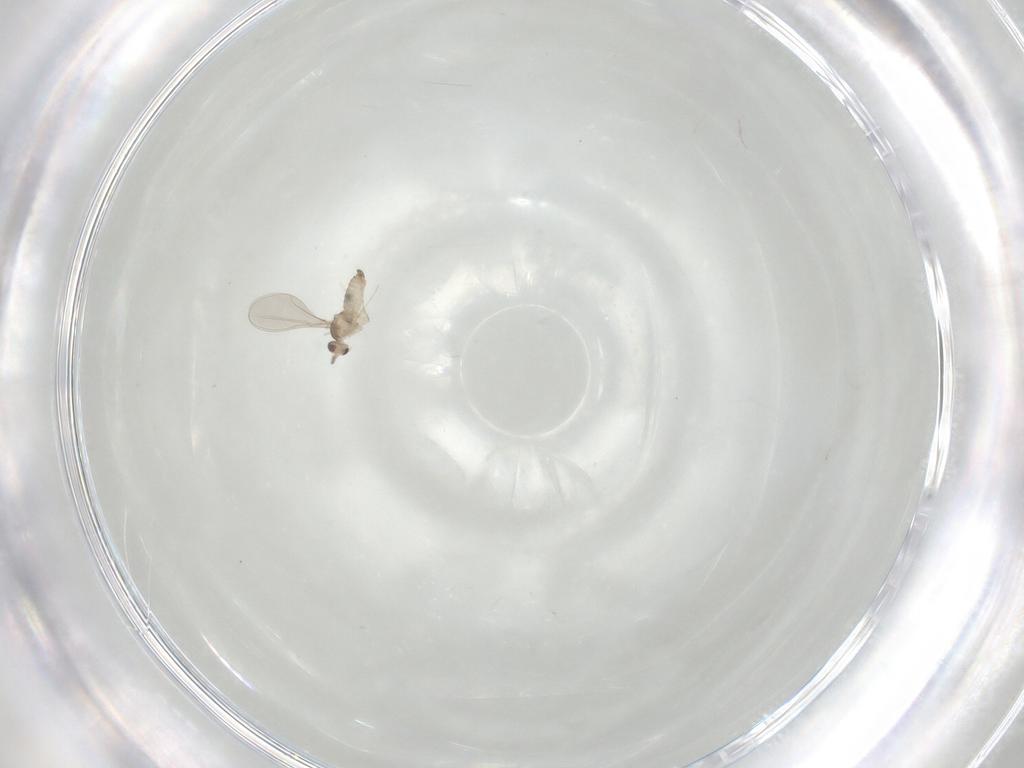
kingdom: Animalia
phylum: Arthropoda
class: Insecta
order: Diptera
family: Cecidomyiidae
